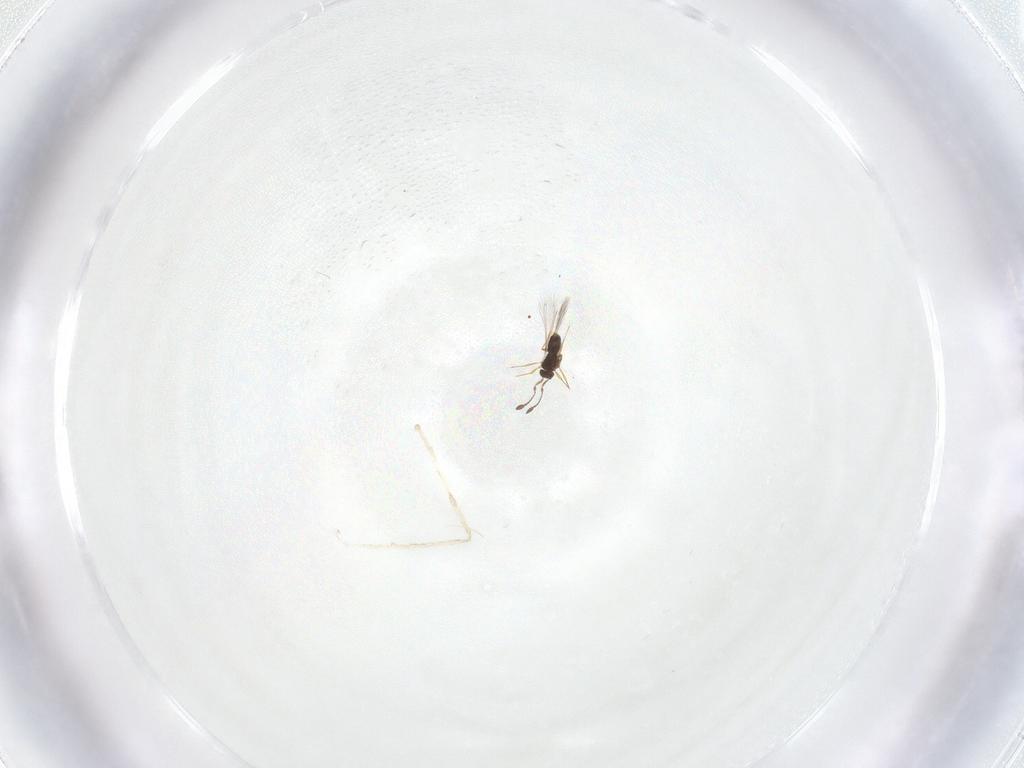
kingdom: Animalia
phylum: Arthropoda
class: Insecta
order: Hymenoptera
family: Mymaridae
